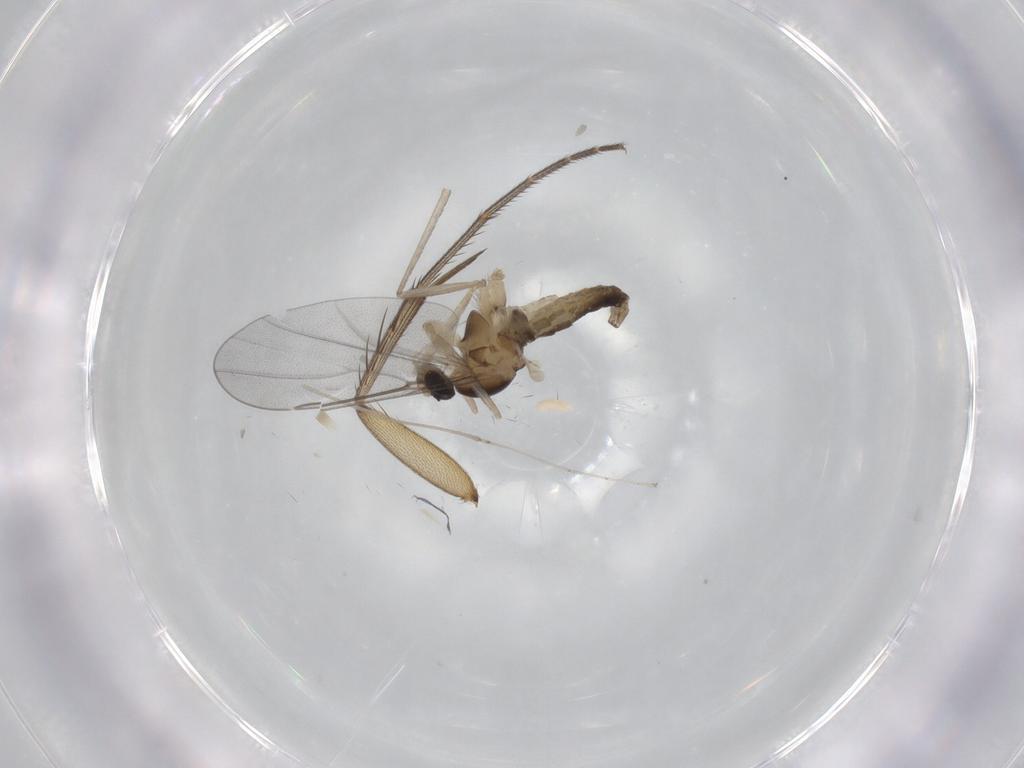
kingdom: Animalia
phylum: Arthropoda
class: Insecta
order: Diptera
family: Cecidomyiidae
